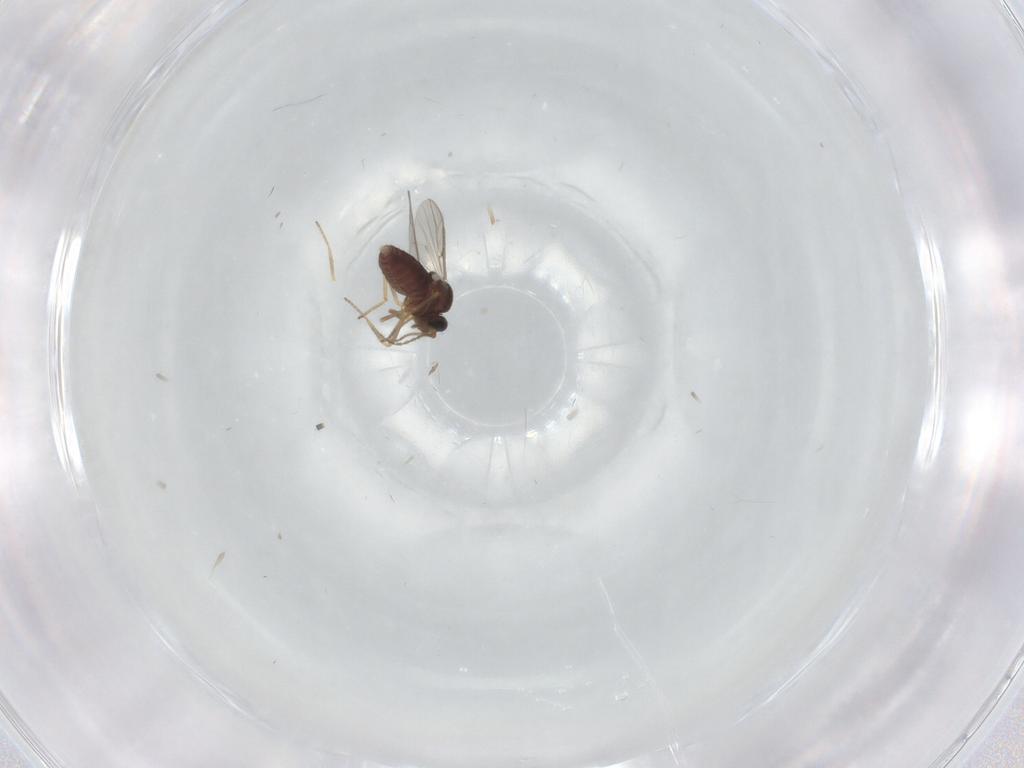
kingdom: Animalia
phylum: Arthropoda
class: Insecta
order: Diptera
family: Ceratopogonidae
